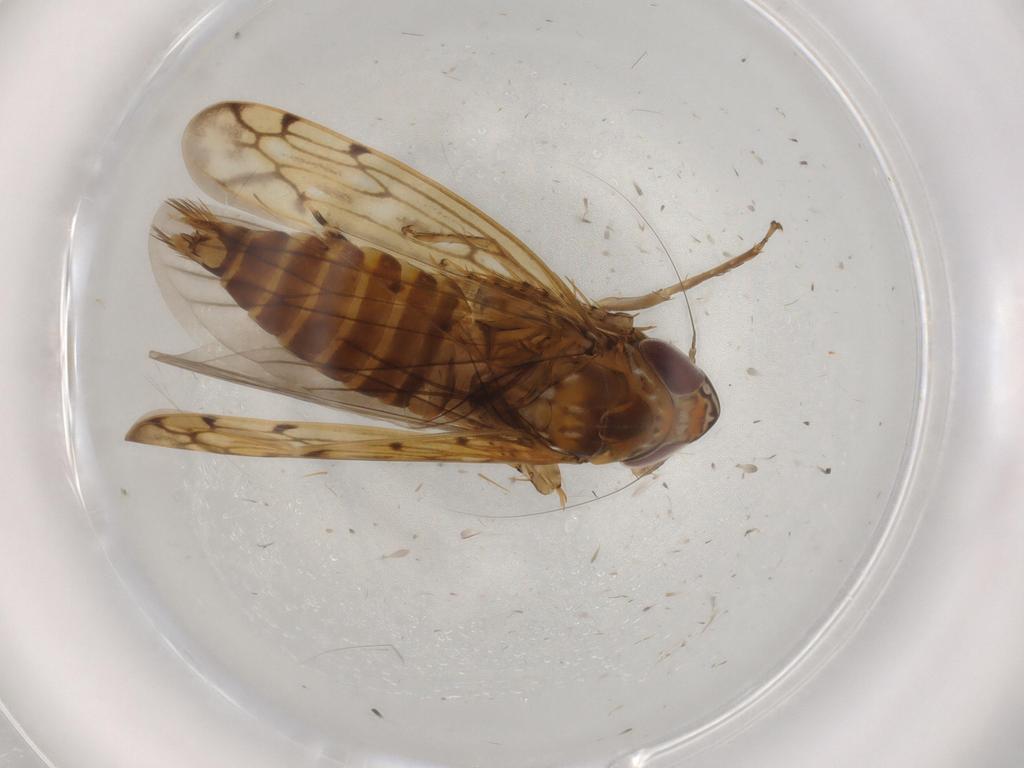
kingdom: Animalia
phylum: Arthropoda
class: Insecta
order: Hemiptera
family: Cicadellidae
